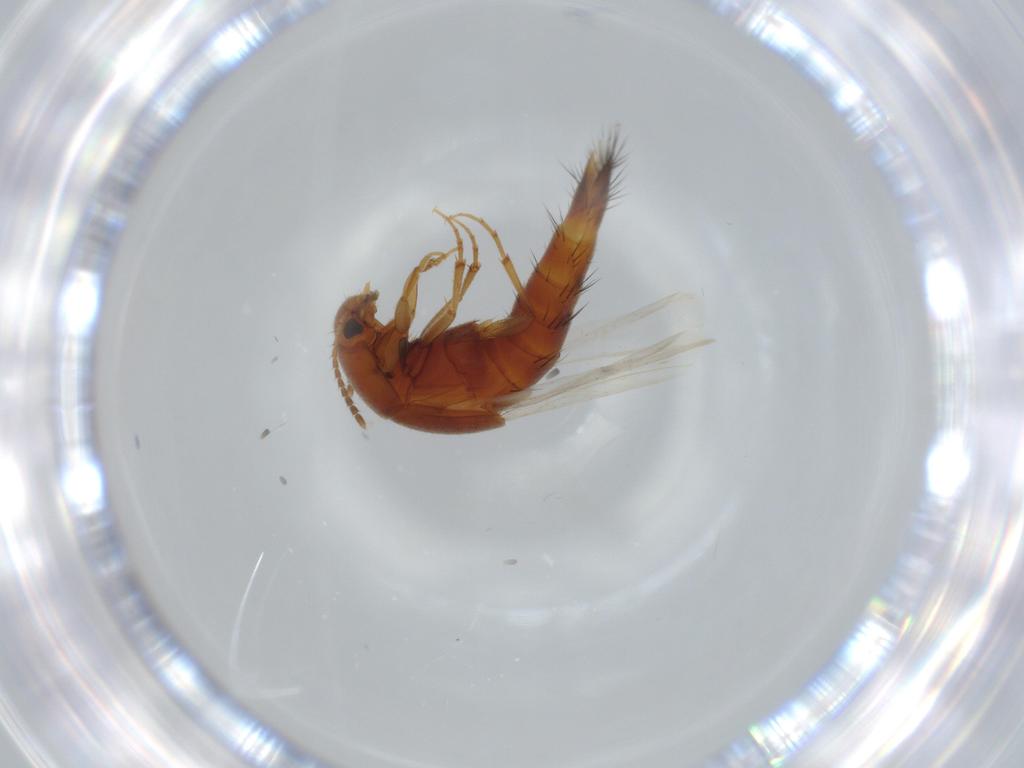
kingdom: Animalia
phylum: Arthropoda
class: Insecta
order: Coleoptera
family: Staphylinidae
